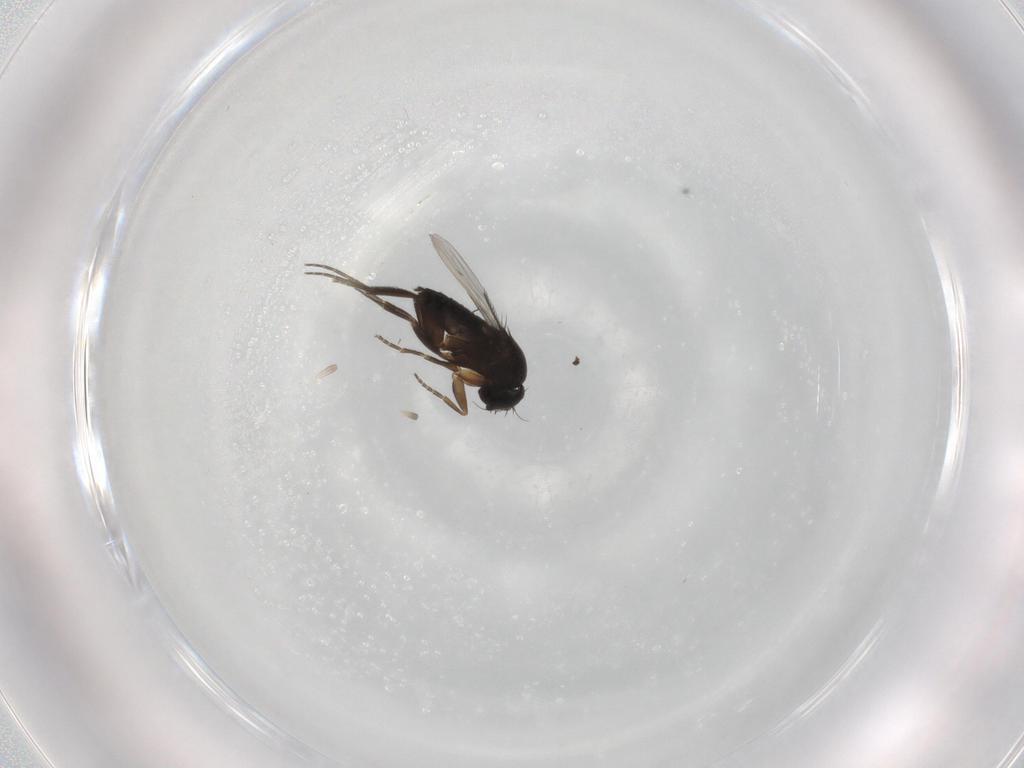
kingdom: Animalia
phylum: Arthropoda
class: Insecta
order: Diptera
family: Phoridae
